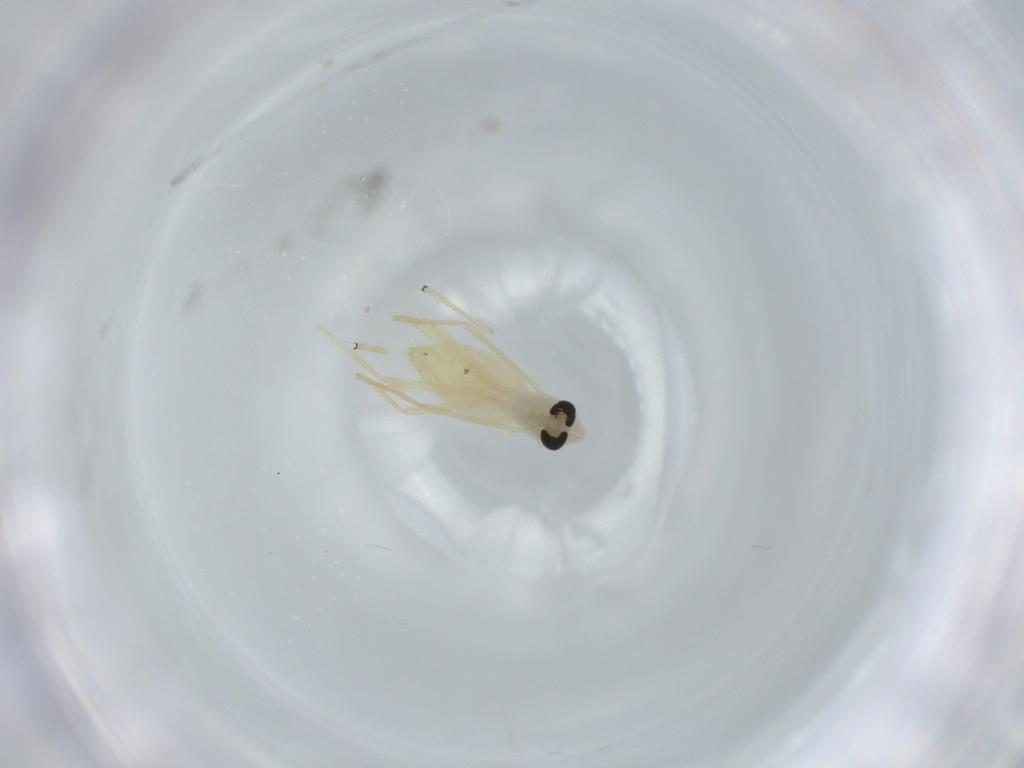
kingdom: Animalia
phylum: Arthropoda
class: Insecta
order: Diptera
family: Chironomidae
